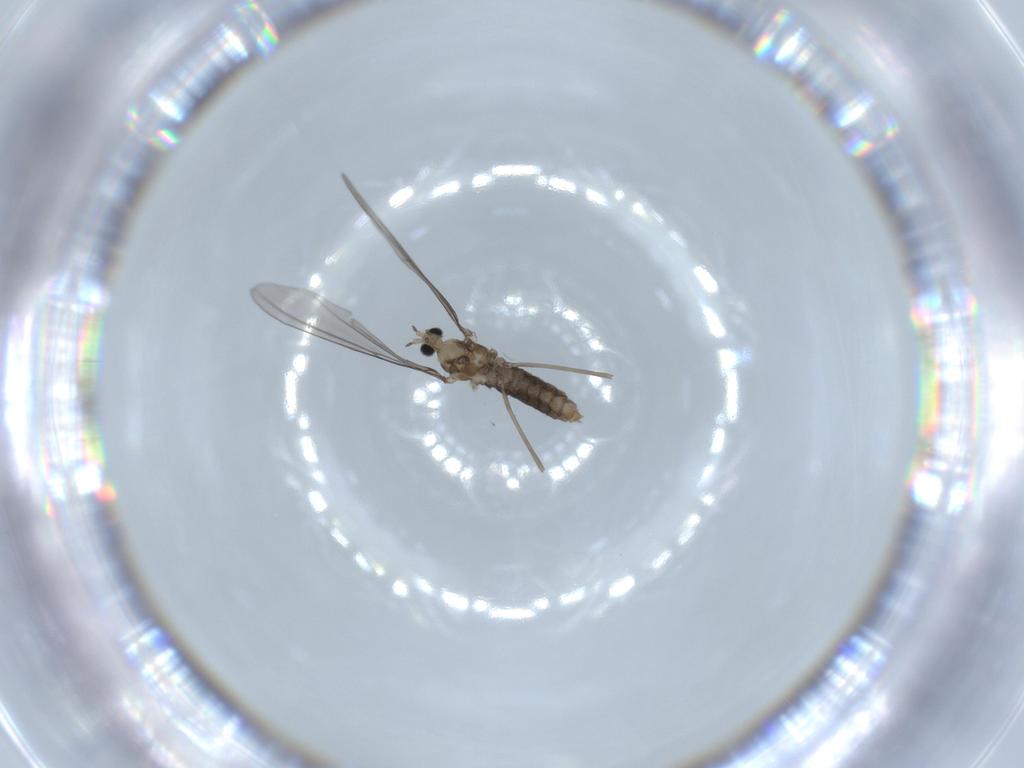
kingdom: Animalia
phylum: Arthropoda
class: Insecta
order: Diptera
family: Cecidomyiidae
